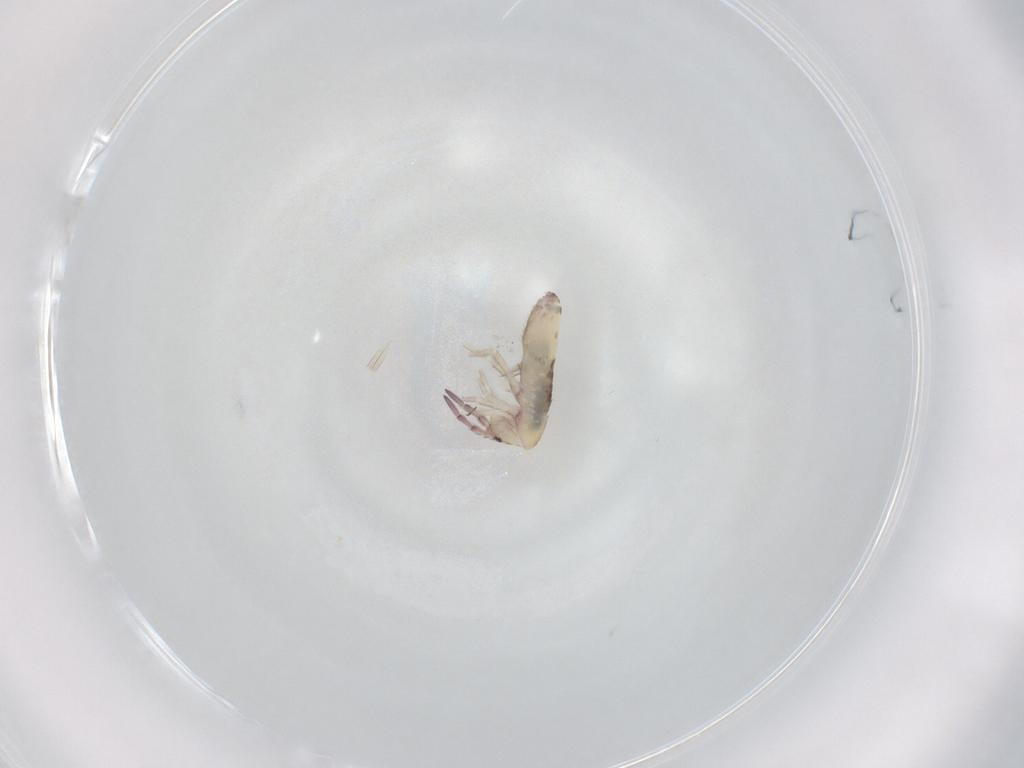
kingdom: Animalia
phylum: Arthropoda
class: Collembola
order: Entomobryomorpha
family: Entomobryidae
